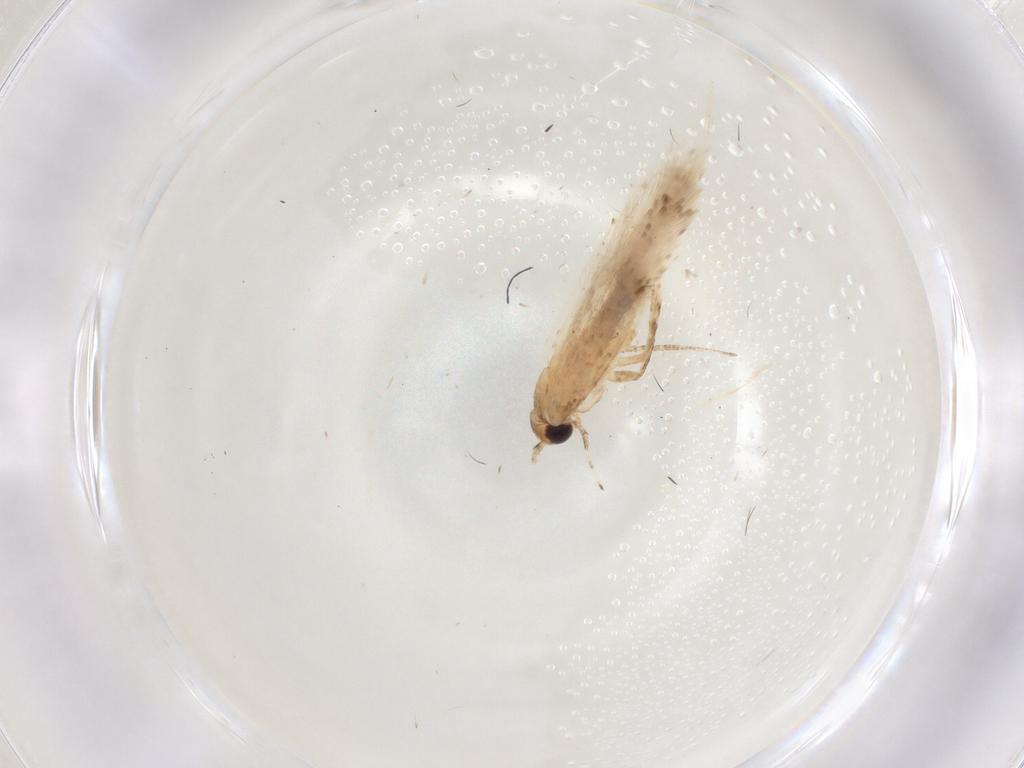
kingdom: Animalia
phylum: Arthropoda
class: Insecta
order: Lepidoptera
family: Gelechiidae
